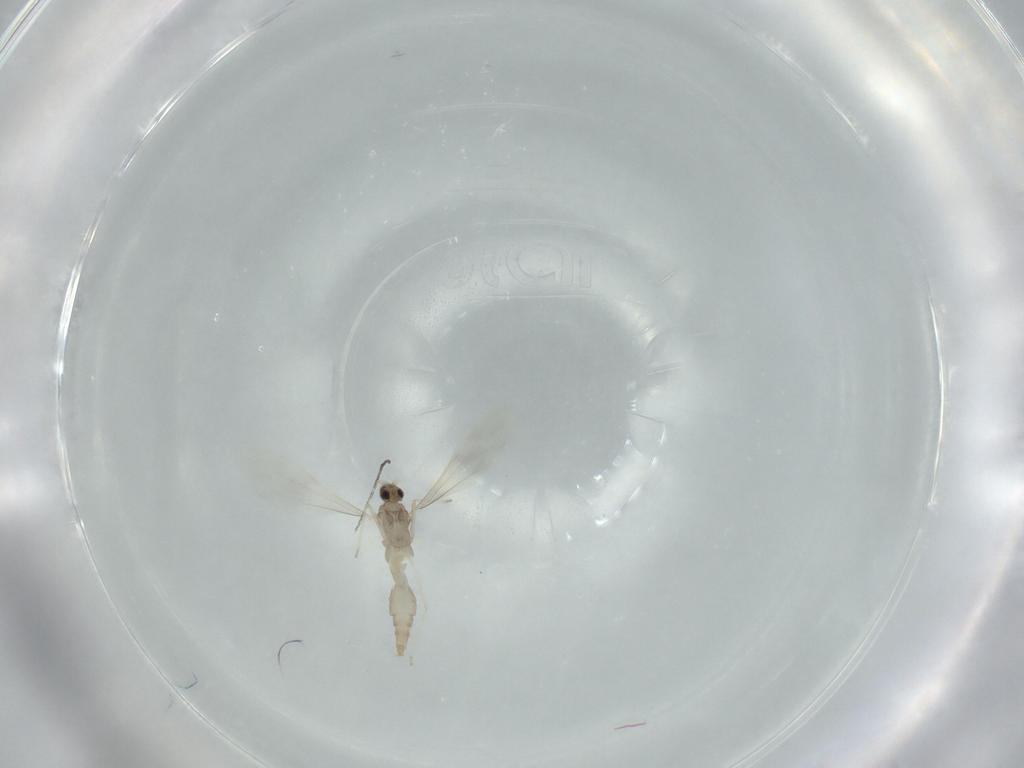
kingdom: Animalia
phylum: Arthropoda
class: Insecta
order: Diptera
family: Cecidomyiidae
